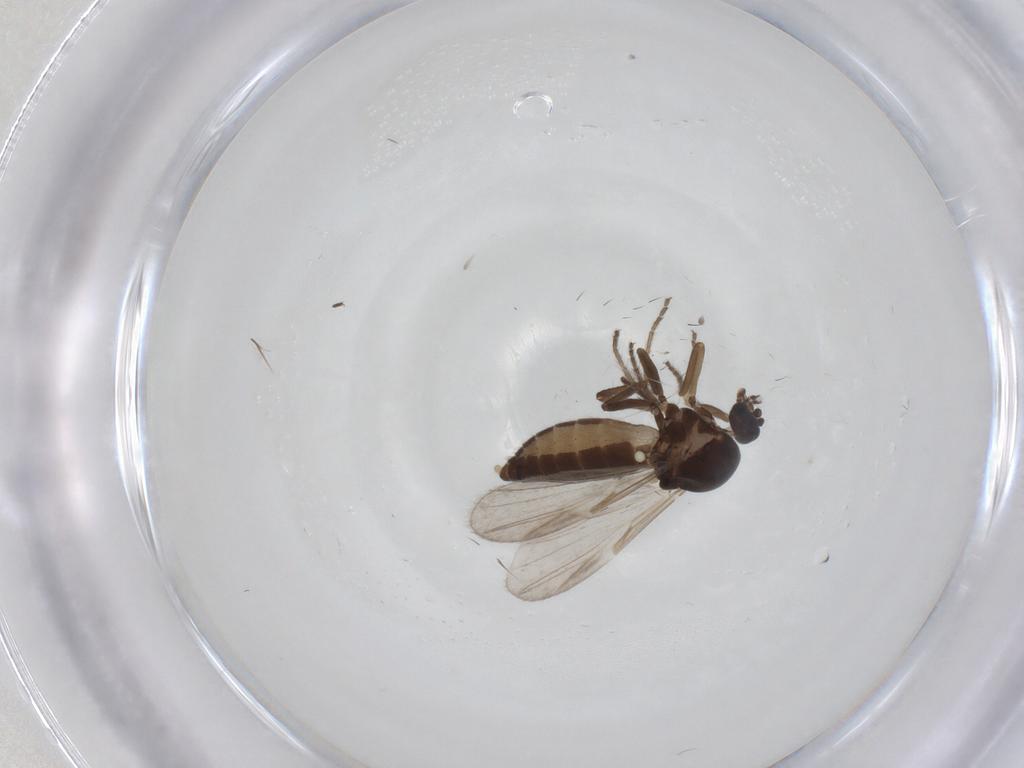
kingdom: Animalia
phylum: Arthropoda
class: Insecta
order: Diptera
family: Ceratopogonidae
